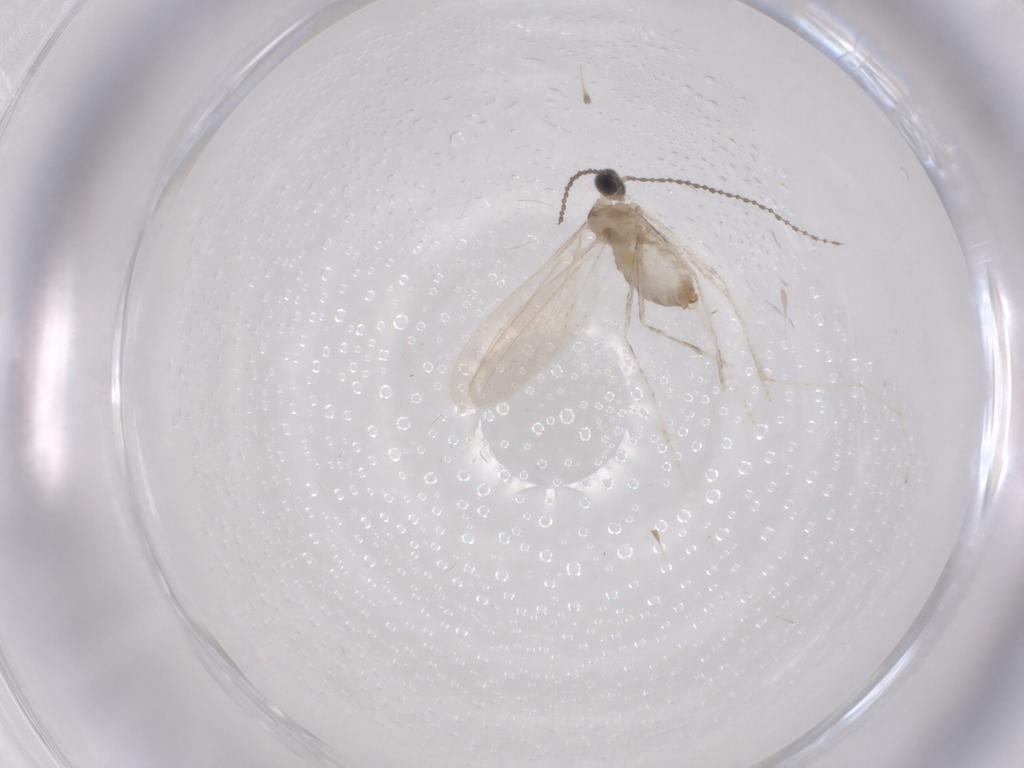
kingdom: Animalia
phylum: Arthropoda
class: Insecta
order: Diptera
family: Cecidomyiidae
